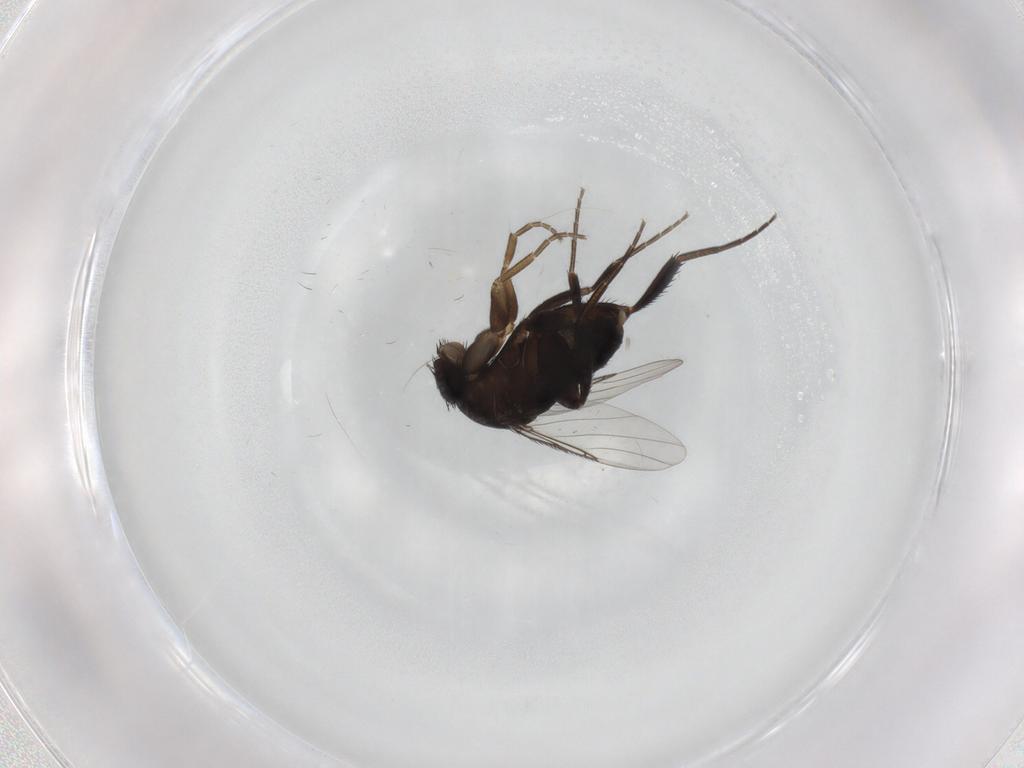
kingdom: Animalia
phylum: Arthropoda
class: Insecta
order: Diptera
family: Phoridae
